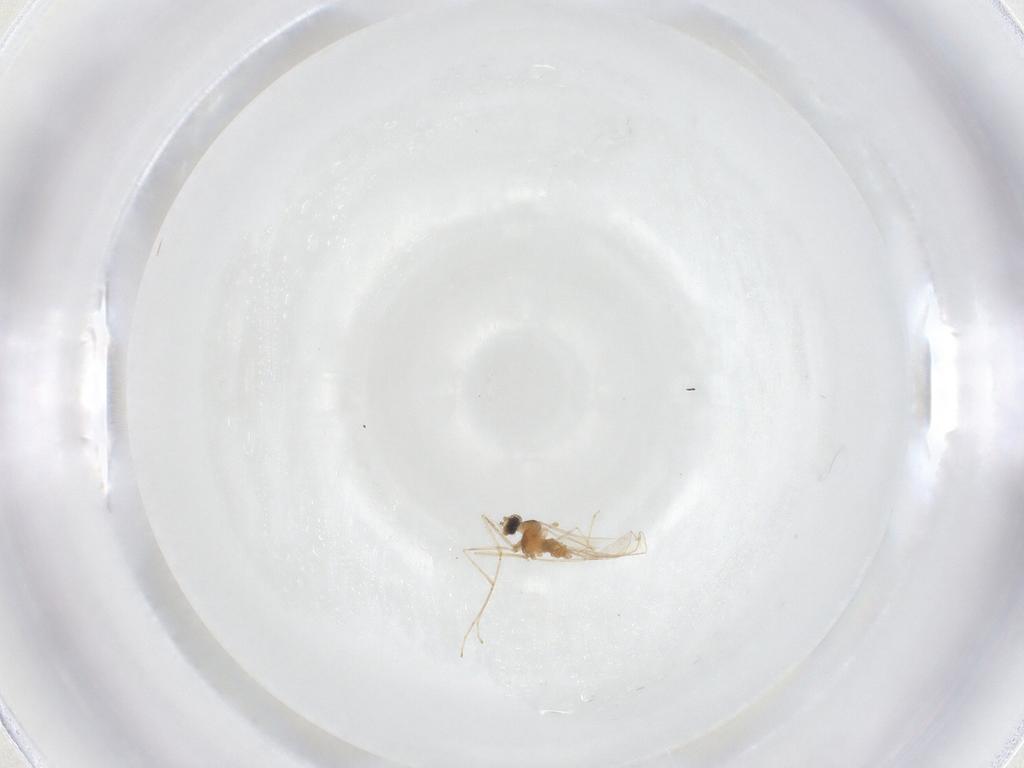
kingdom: Animalia
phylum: Arthropoda
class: Insecta
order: Diptera
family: Cecidomyiidae
